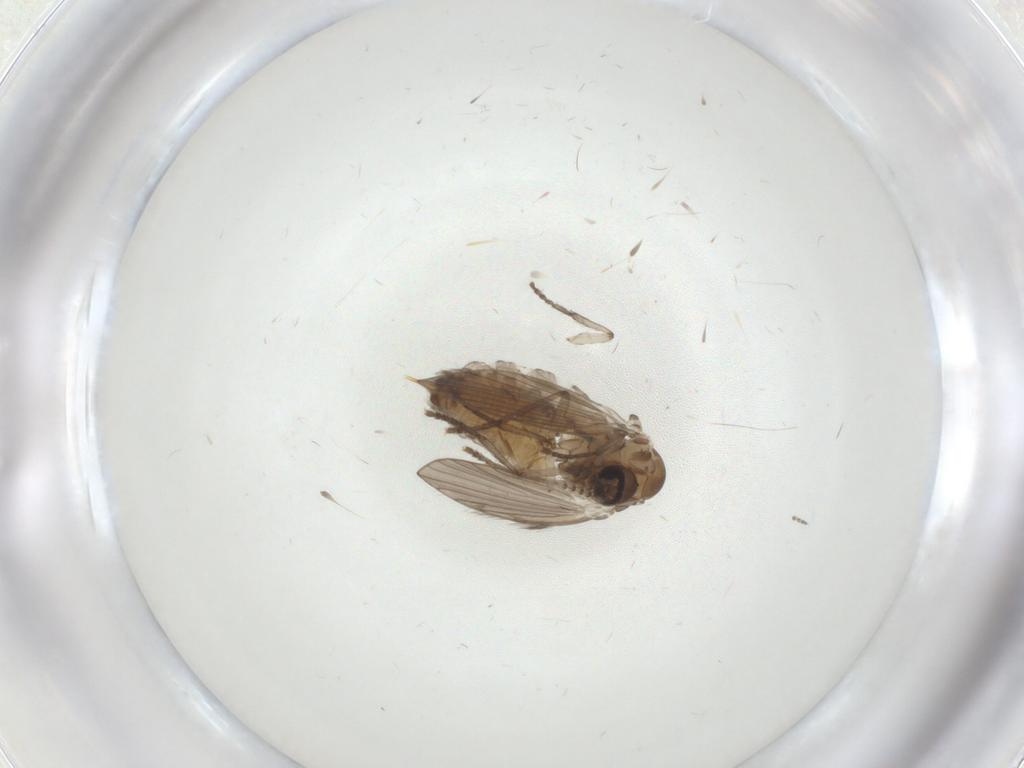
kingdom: Animalia
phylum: Arthropoda
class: Insecta
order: Diptera
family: Psychodidae
